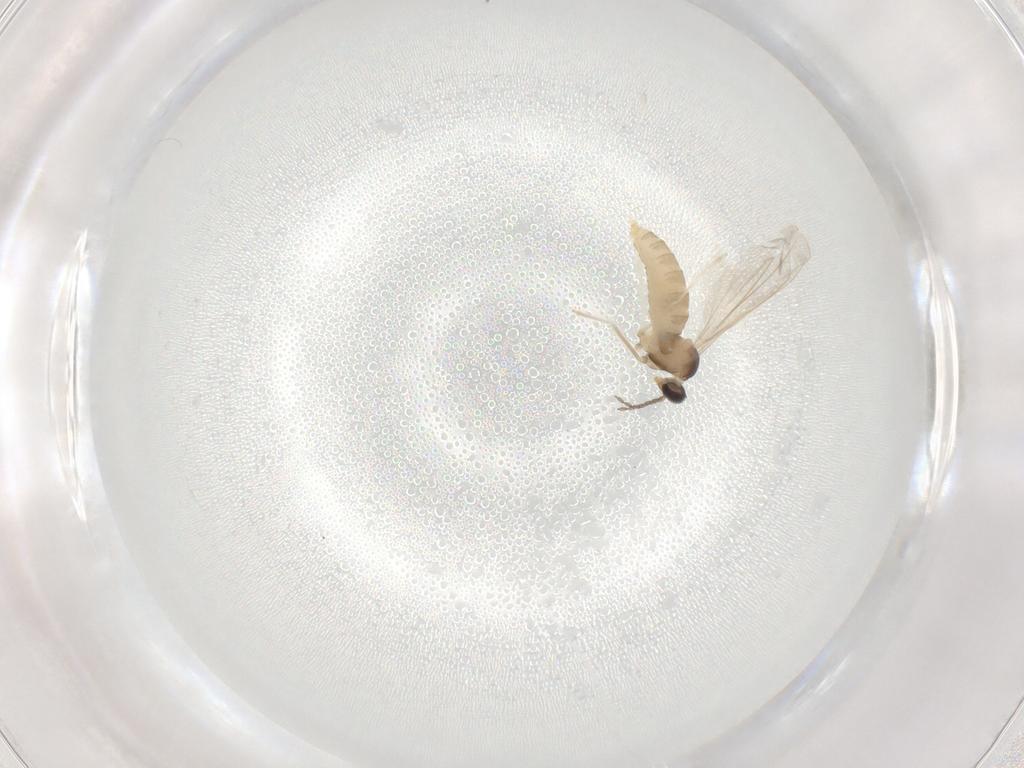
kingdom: Animalia
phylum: Arthropoda
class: Insecta
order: Diptera
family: Cecidomyiidae
